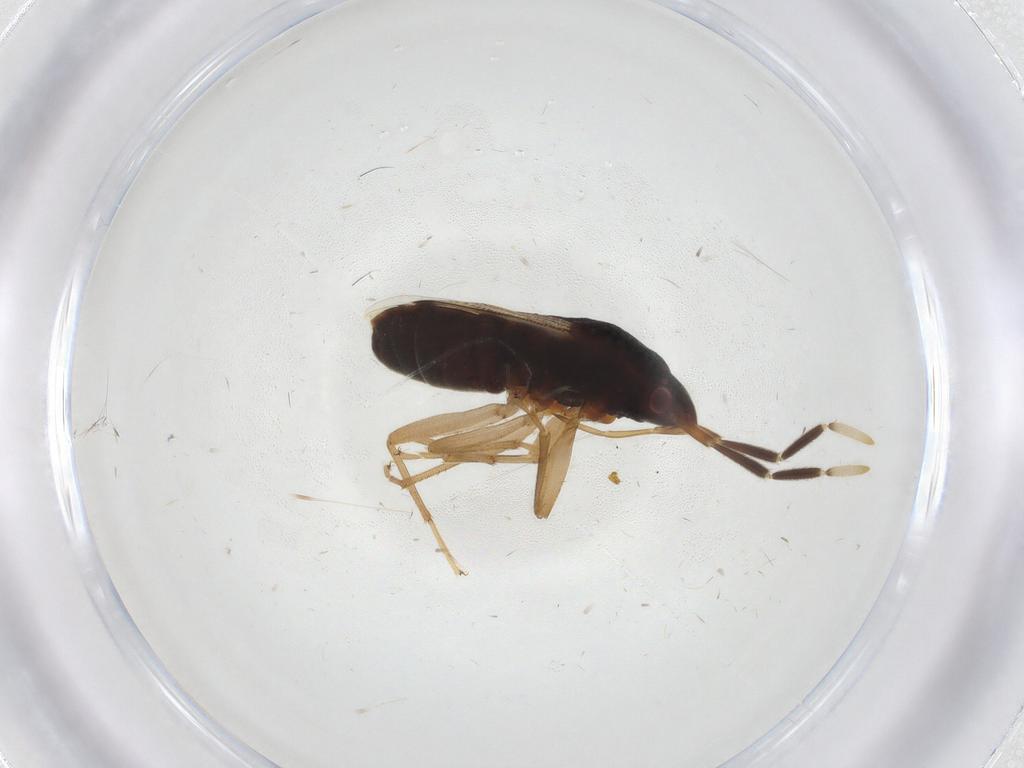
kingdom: Animalia
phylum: Arthropoda
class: Insecta
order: Hemiptera
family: Rhyparochromidae
